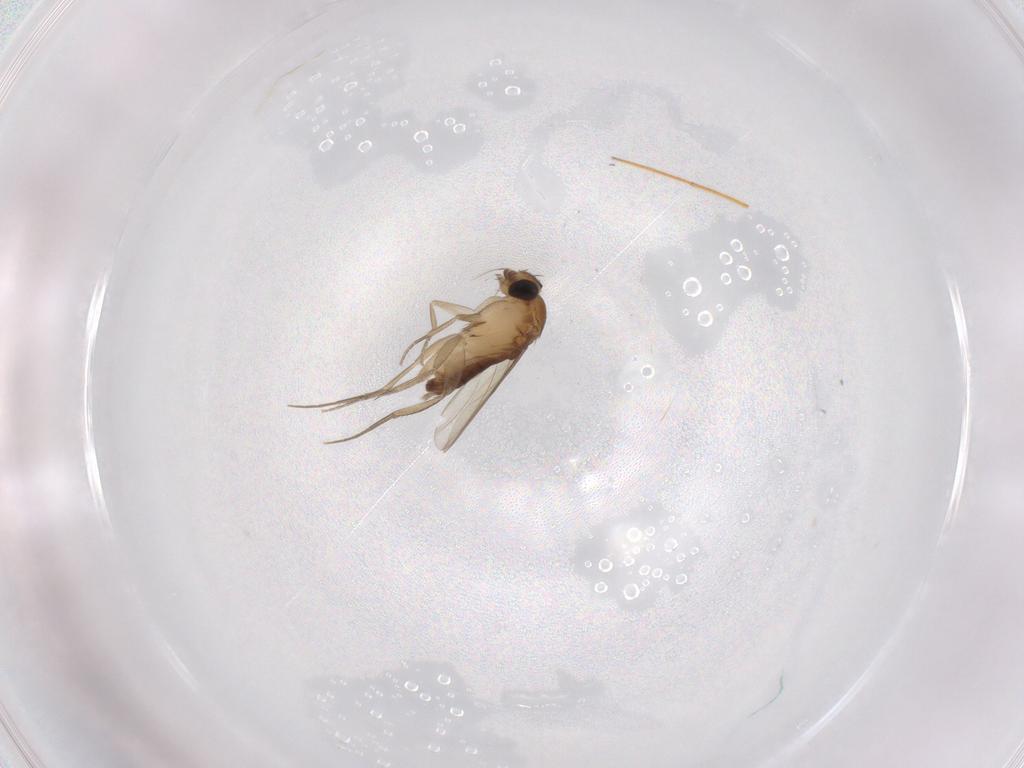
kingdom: Animalia
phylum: Arthropoda
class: Insecta
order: Diptera
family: Phoridae
